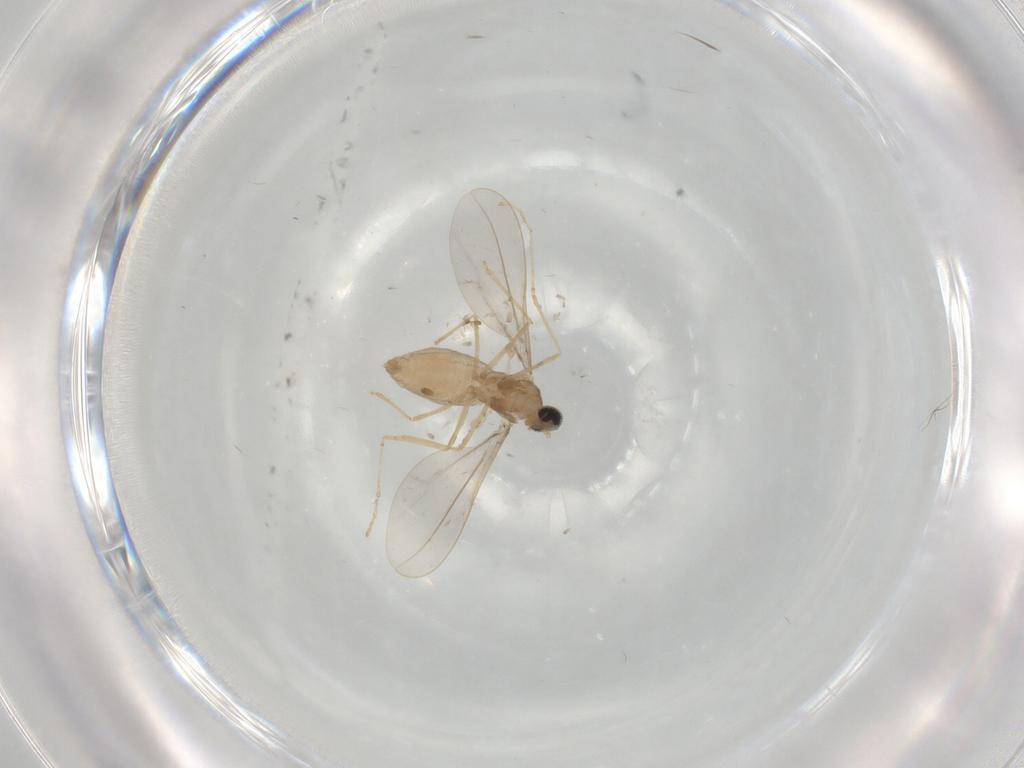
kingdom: Animalia
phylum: Arthropoda
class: Insecta
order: Diptera
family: Cecidomyiidae
